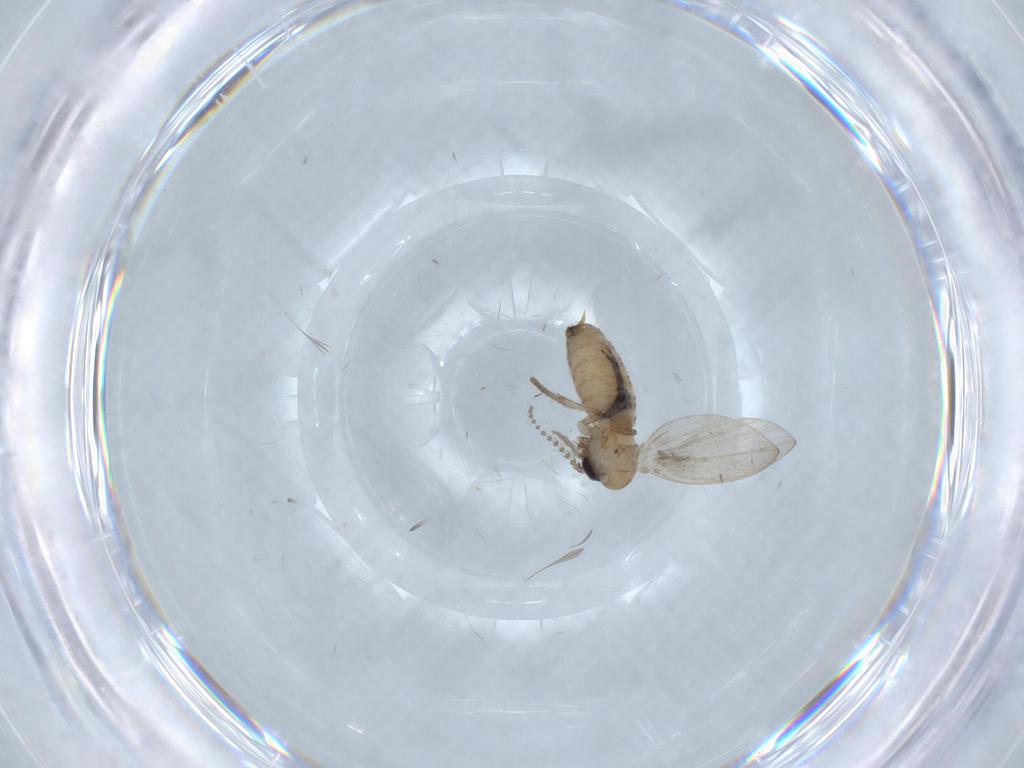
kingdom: Animalia
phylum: Arthropoda
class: Insecta
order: Diptera
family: Psychodidae
